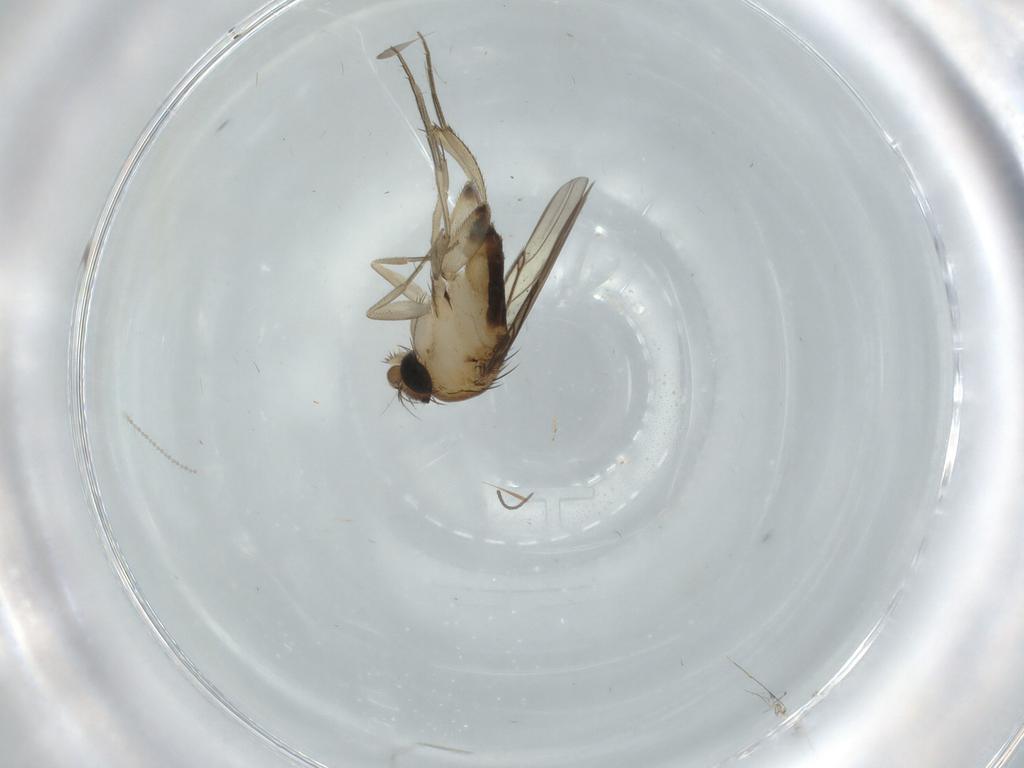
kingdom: Animalia
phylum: Arthropoda
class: Insecta
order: Diptera
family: Phoridae
